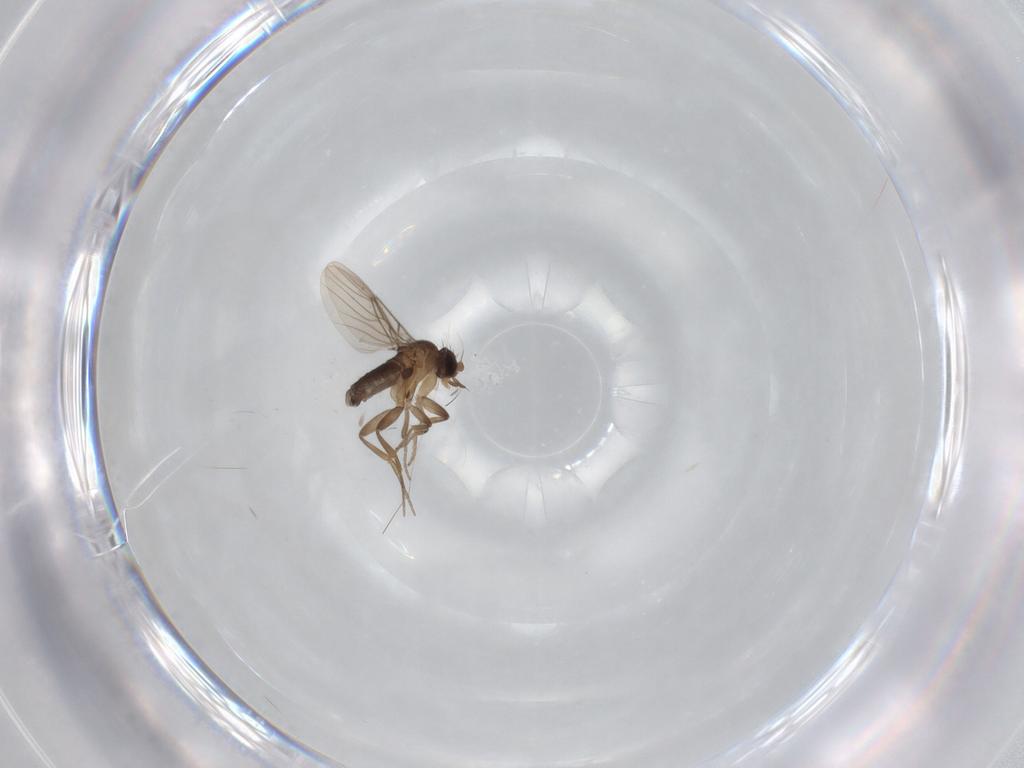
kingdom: Animalia
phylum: Arthropoda
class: Insecta
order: Diptera
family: Phoridae
